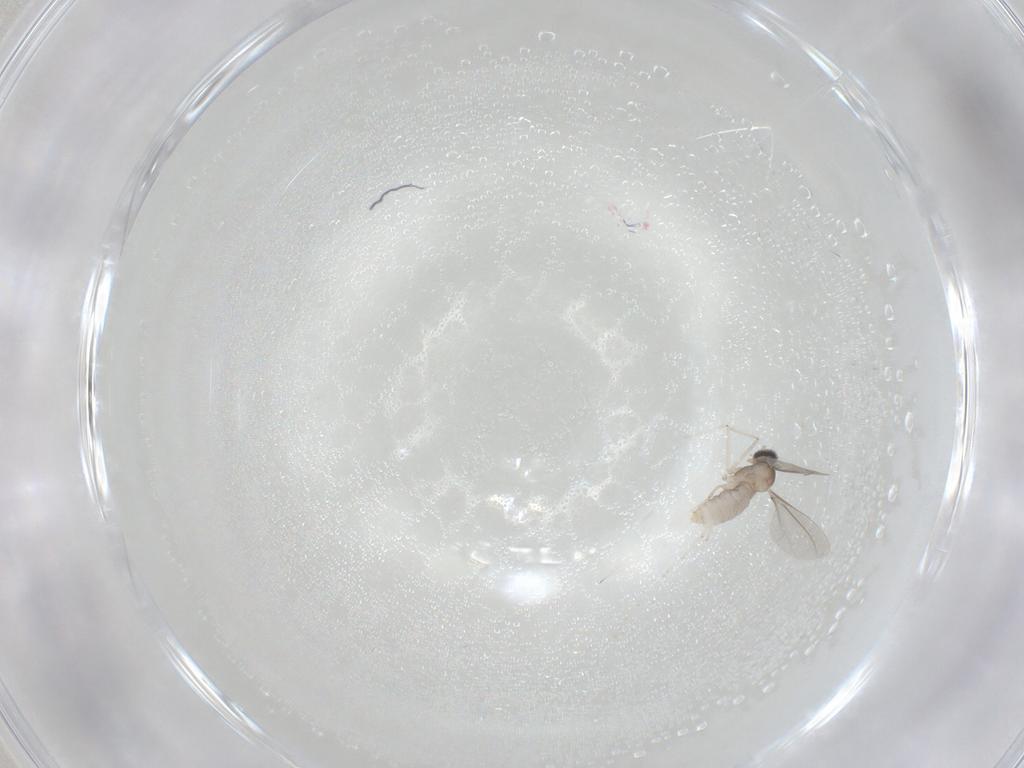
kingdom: Animalia
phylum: Arthropoda
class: Insecta
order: Diptera
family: Cecidomyiidae
